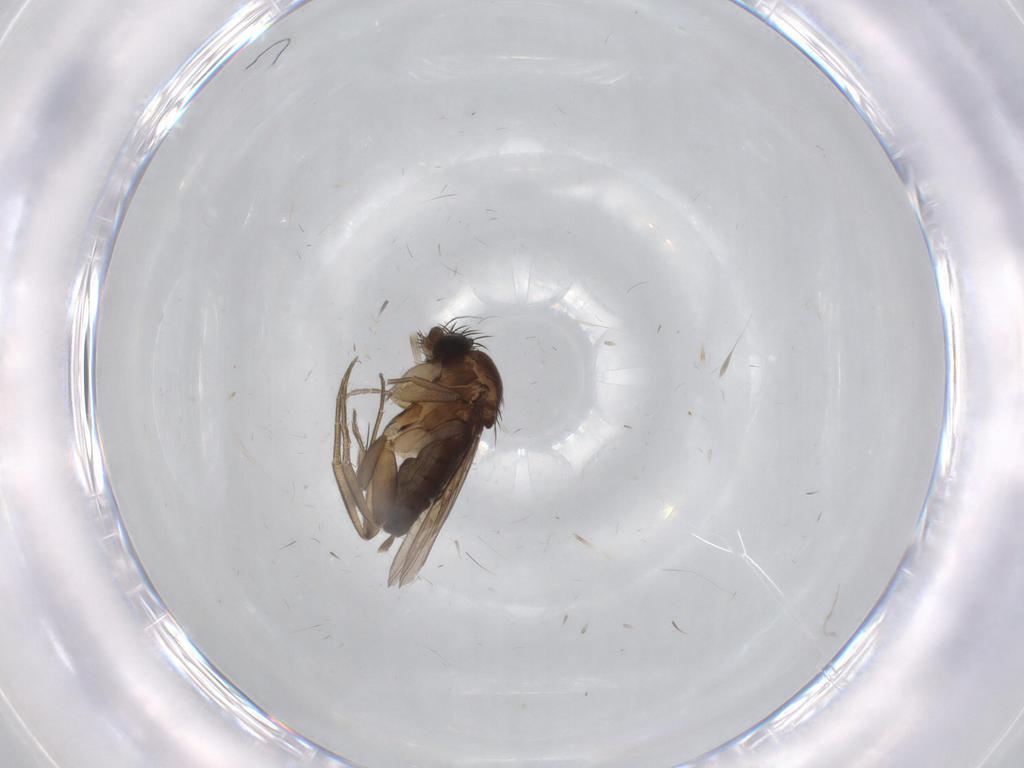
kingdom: Animalia
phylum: Arthropoda
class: Insecta
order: Diptera
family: Phoridae
